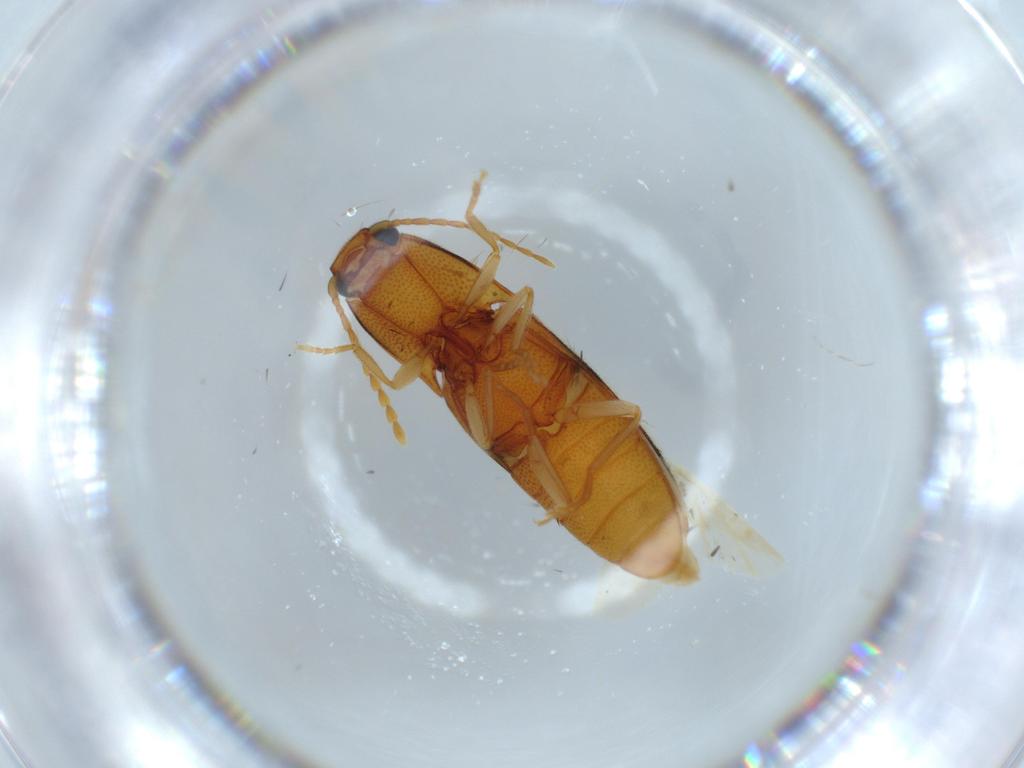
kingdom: Animalia
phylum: Arthropoda
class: Insecta
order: Coleoptera
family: Elateridae
